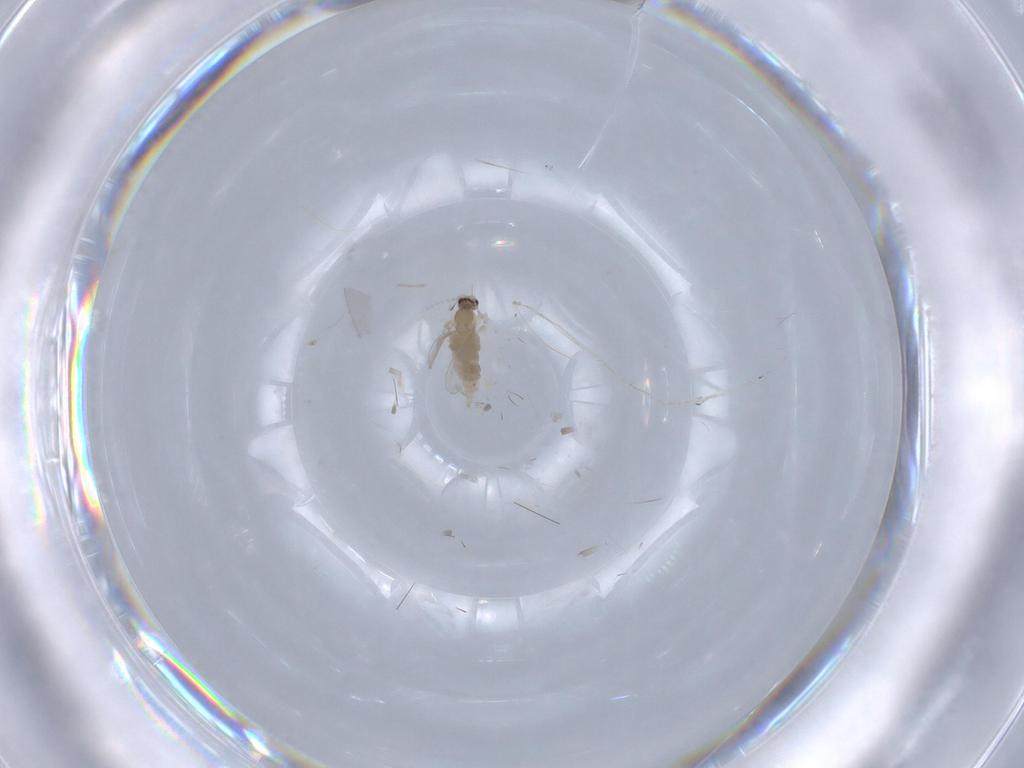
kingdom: Animalia
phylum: Arthropoda
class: Insecta
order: Diptera
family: Cecidomyiidae
